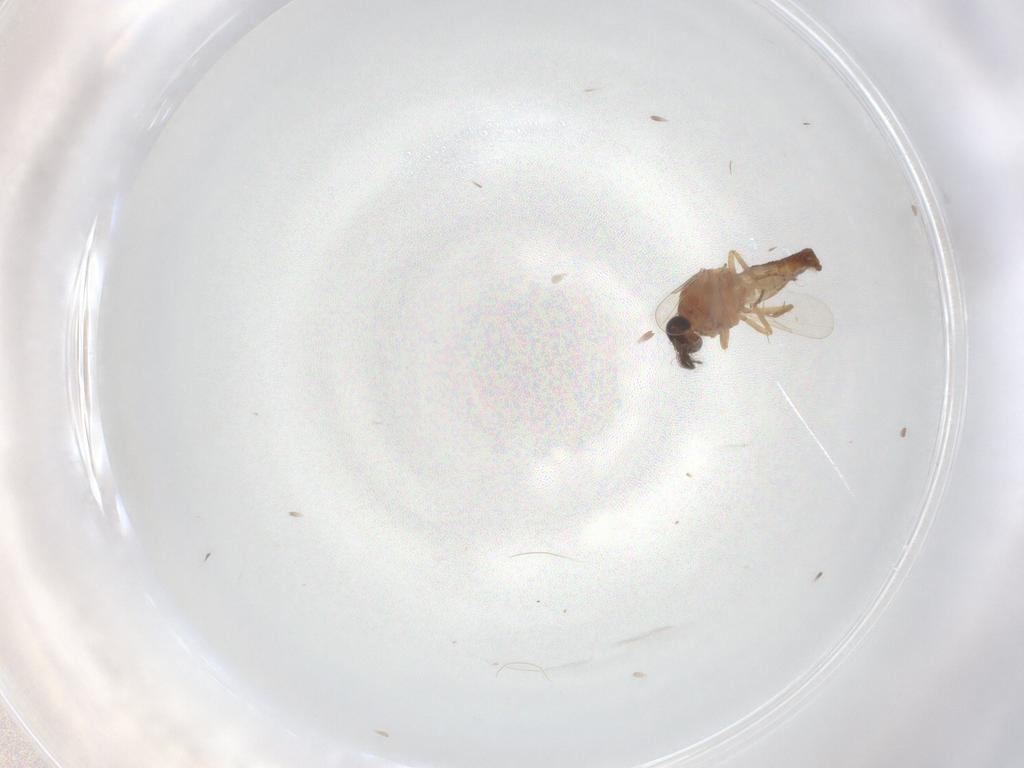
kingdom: Animalia
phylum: Arthropoda
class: Insecta
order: Diptera
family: Ceratopogonidae
